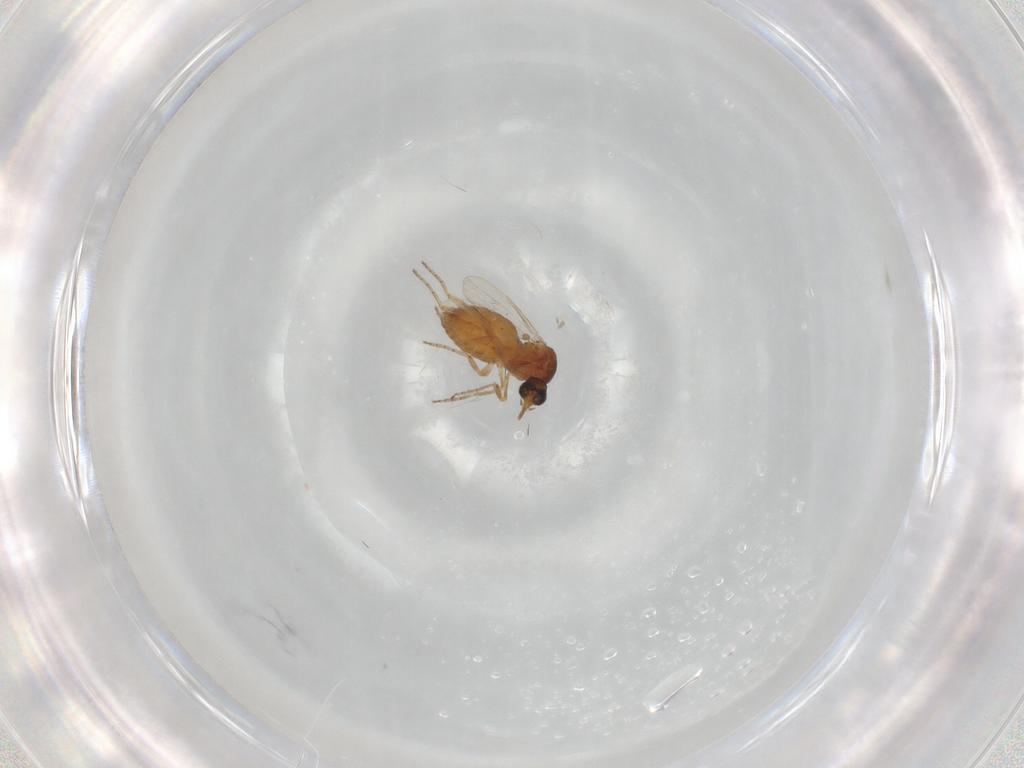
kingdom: Animalia
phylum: Arthropoda
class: Insecta
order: Diptera
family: Ceratopogonidae
